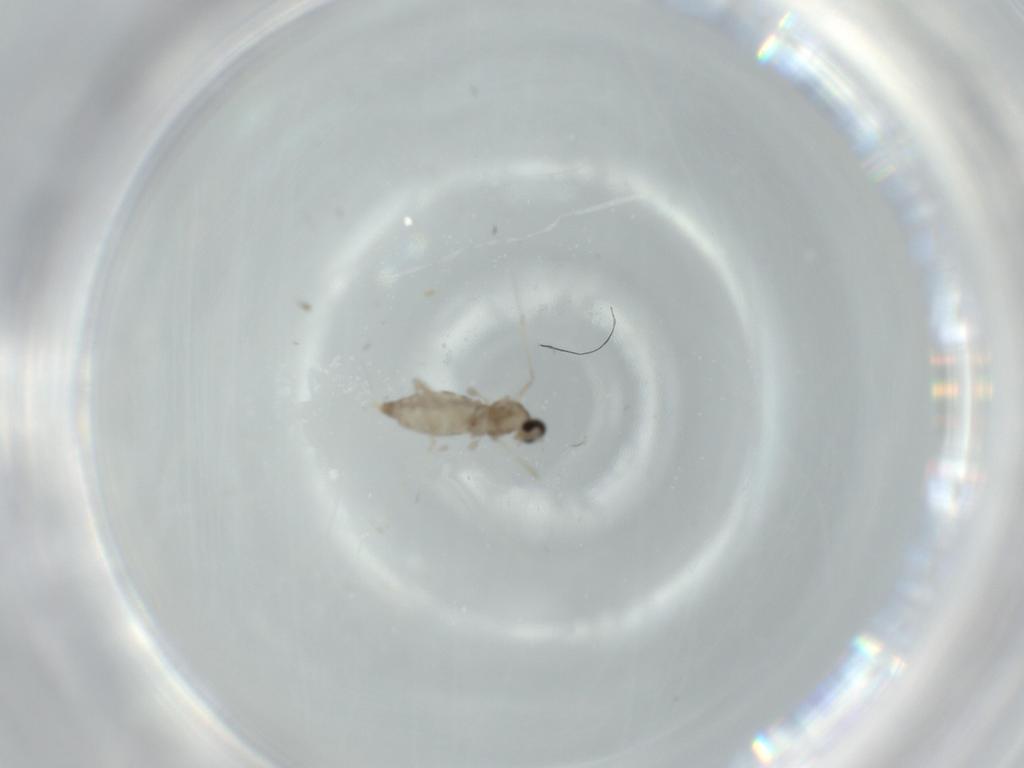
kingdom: Animalia
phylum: Arthropoda
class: Insecta
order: Diptera
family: Cecidomyiidae
